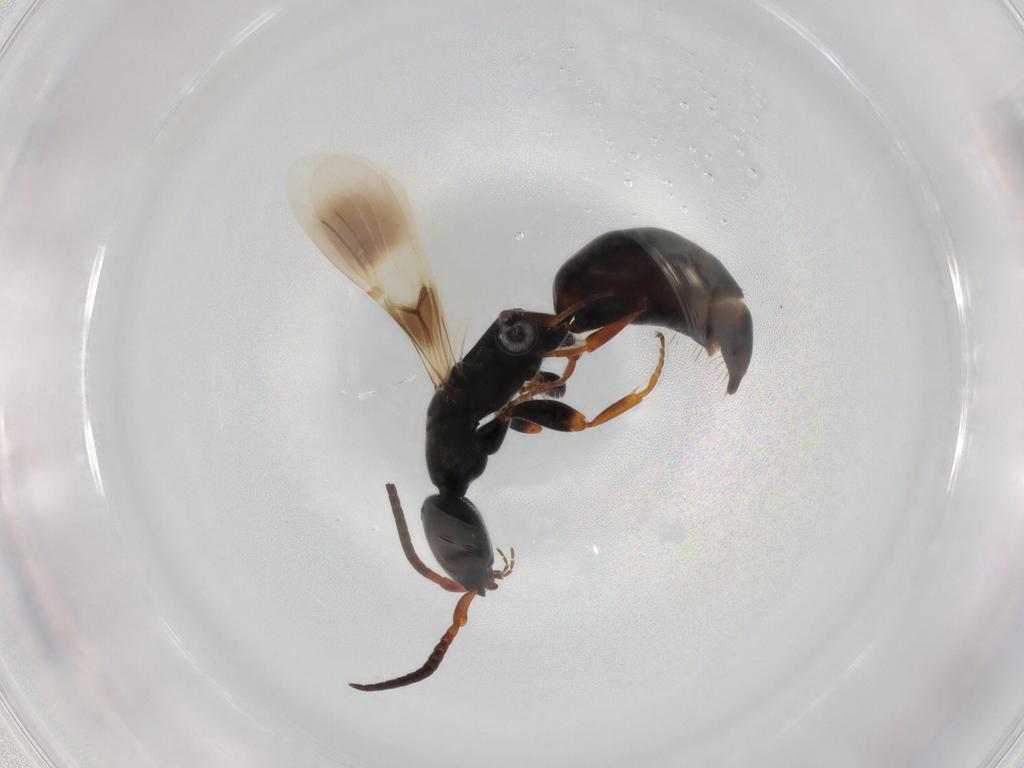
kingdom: Animalia
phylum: Arthropoda
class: Insecta
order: Hymenoptera
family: Bethylidae
